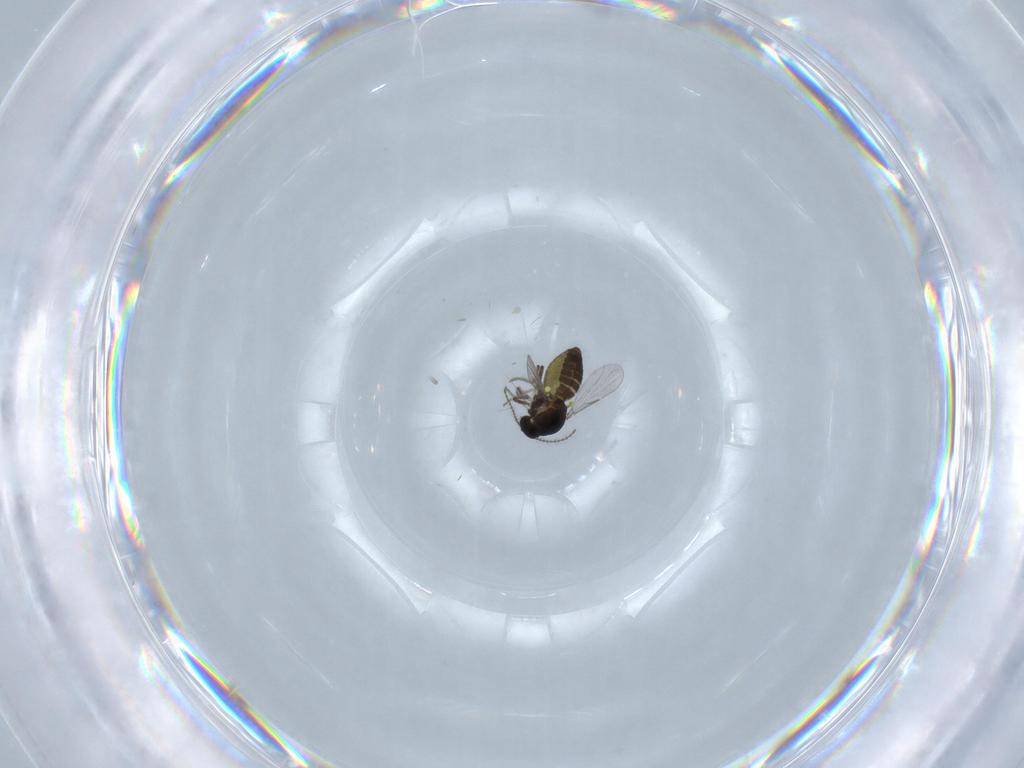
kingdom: Animalia
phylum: Arthropoda
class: Insecta
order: Diptera
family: Ceratopogonidae
